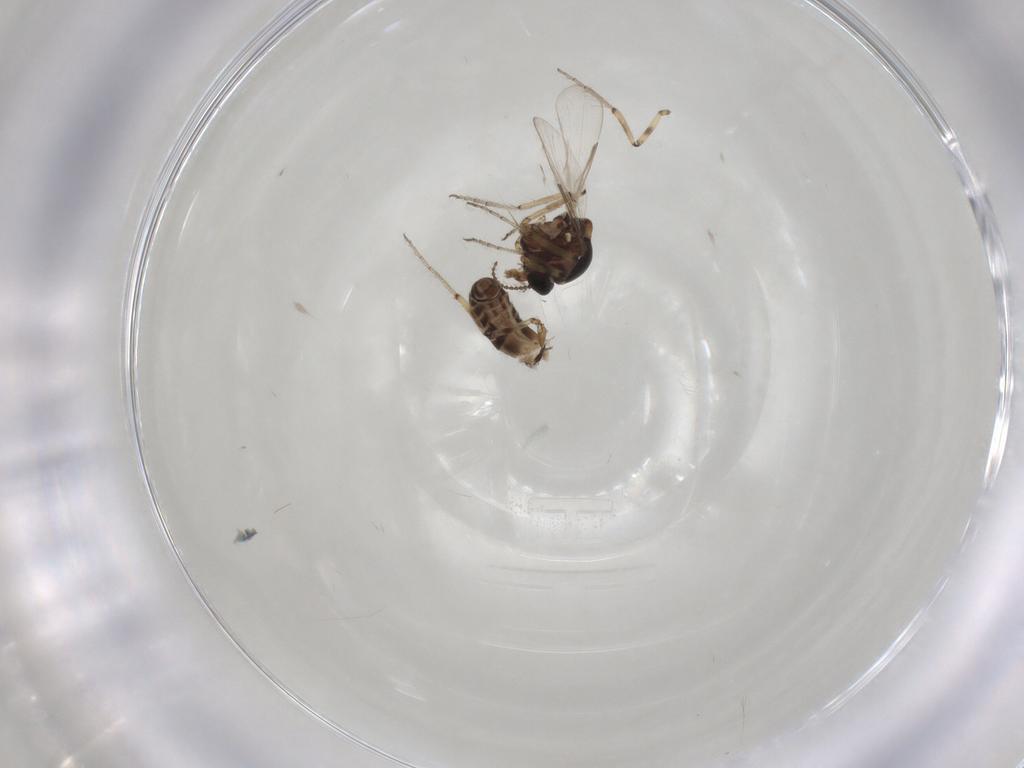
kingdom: Animalia
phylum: Arthropoda
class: Insecta
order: Diptera
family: Ceratopogonidae
